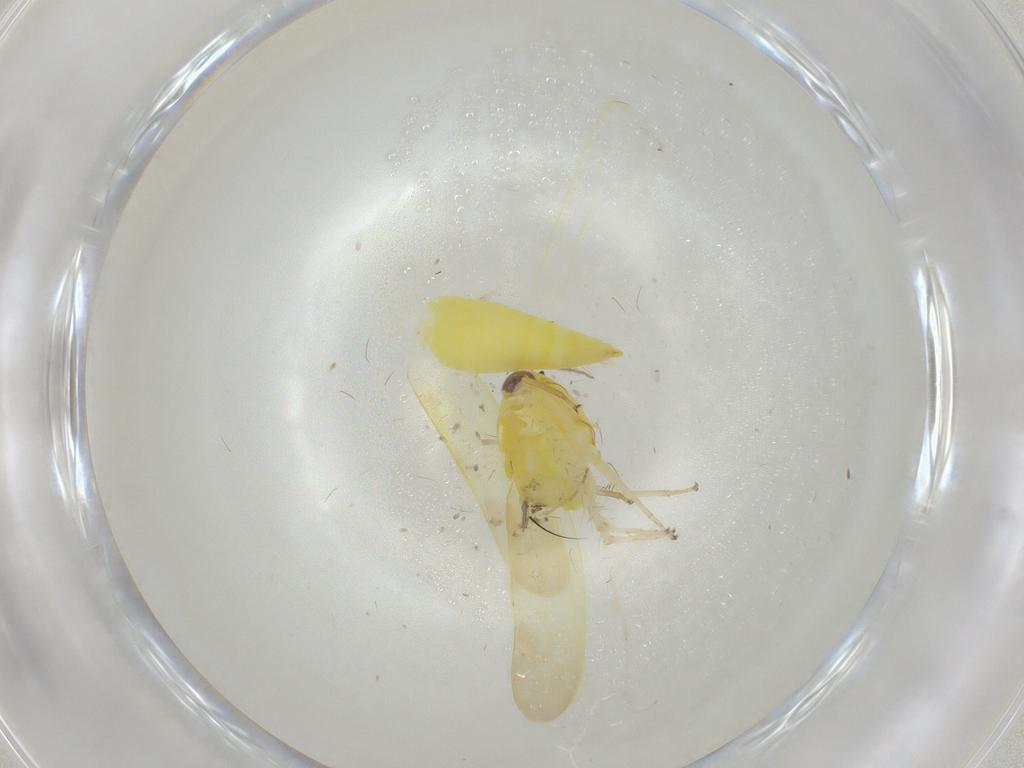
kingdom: Animalia
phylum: Arthropoda
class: Insecta
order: Hemiptera
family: Cicadellidae
